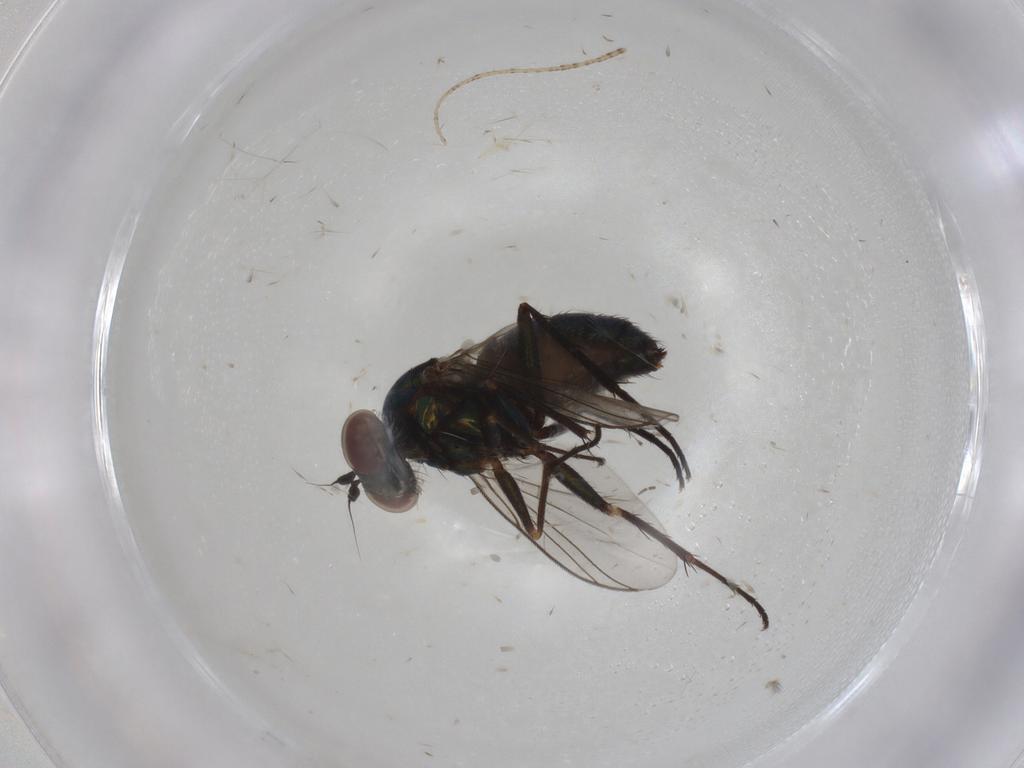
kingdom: Animalia
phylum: Arthropoda
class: Insecta
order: Diptera
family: Dolichopodidae
